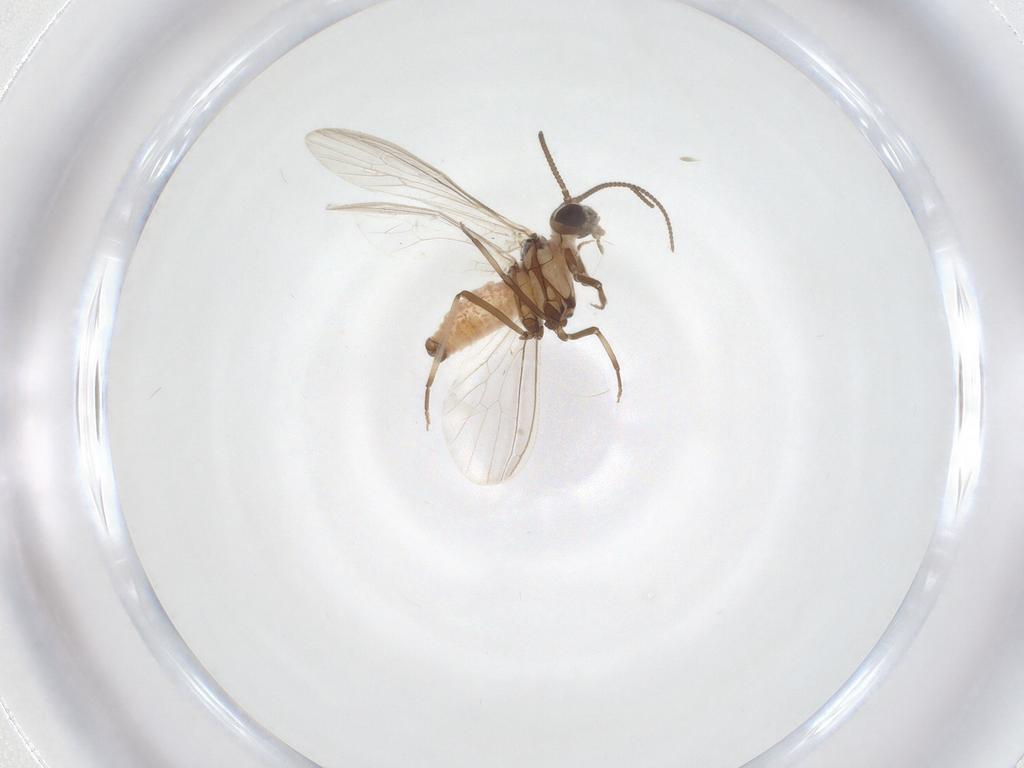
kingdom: Animalia
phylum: Arthropoda
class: Insecta
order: Neuroptera
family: Coniopterygidae
